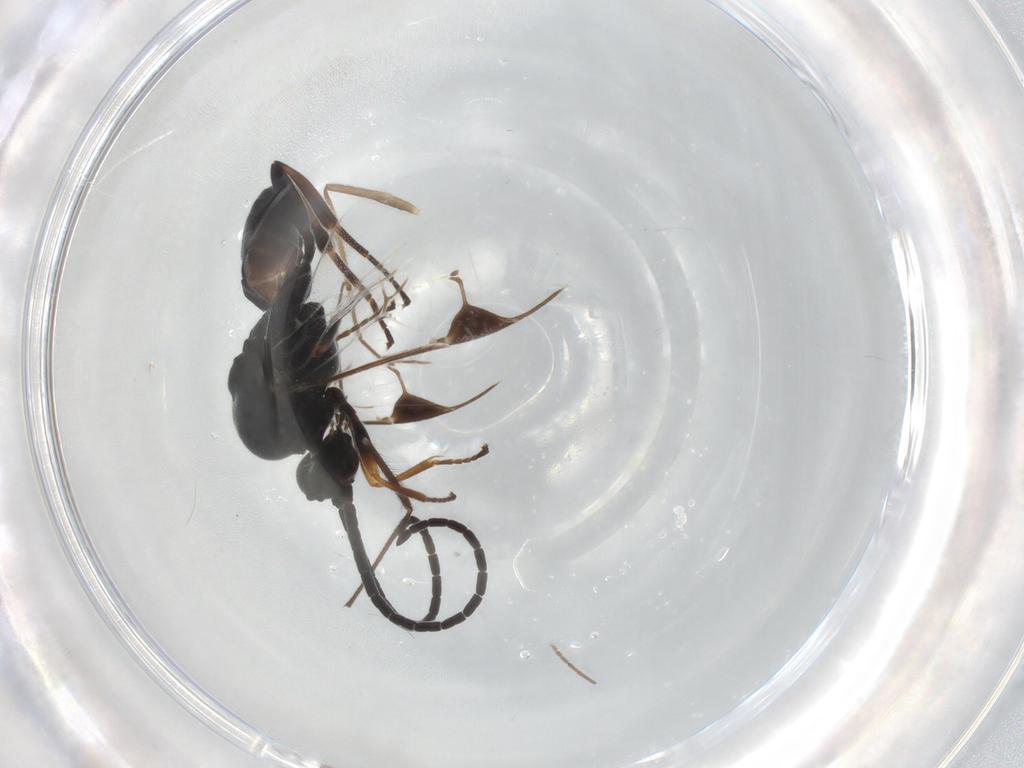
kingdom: Animalia
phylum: Arthropoda
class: Insecta
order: Hymenoptera
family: Braconidae
